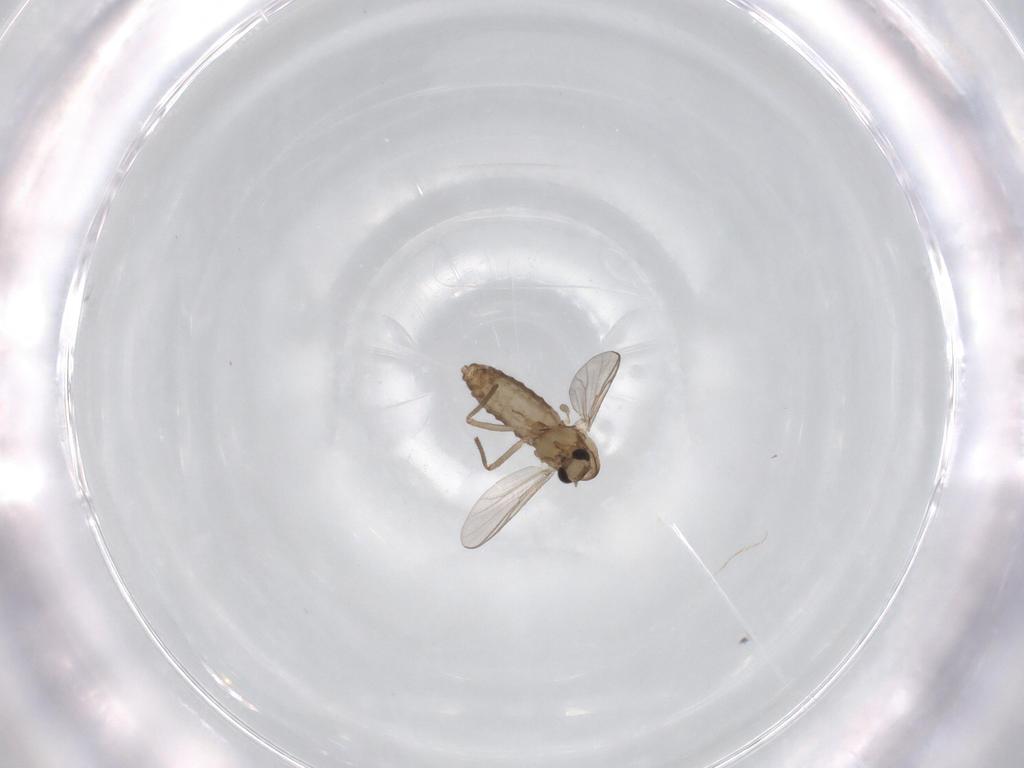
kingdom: Animalia
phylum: Arthropoda
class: Insecta
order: Diptera
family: Chironomidae
